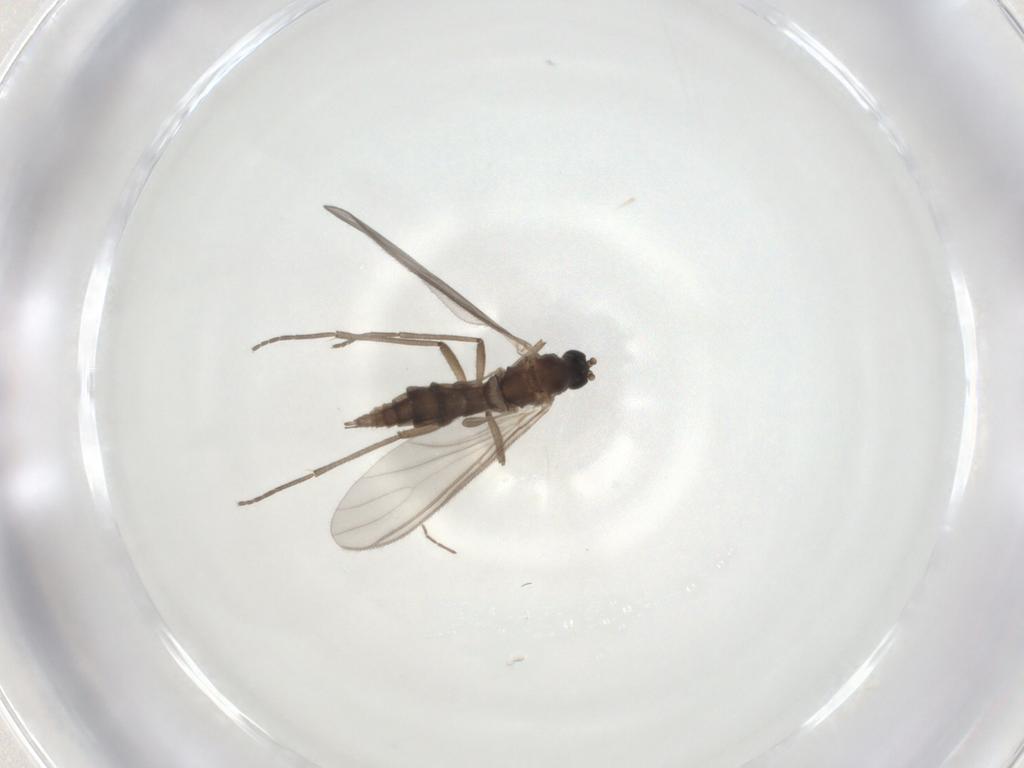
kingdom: Animalia
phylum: Arthropoda
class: Insecta
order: Diptera
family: Sciaridae
